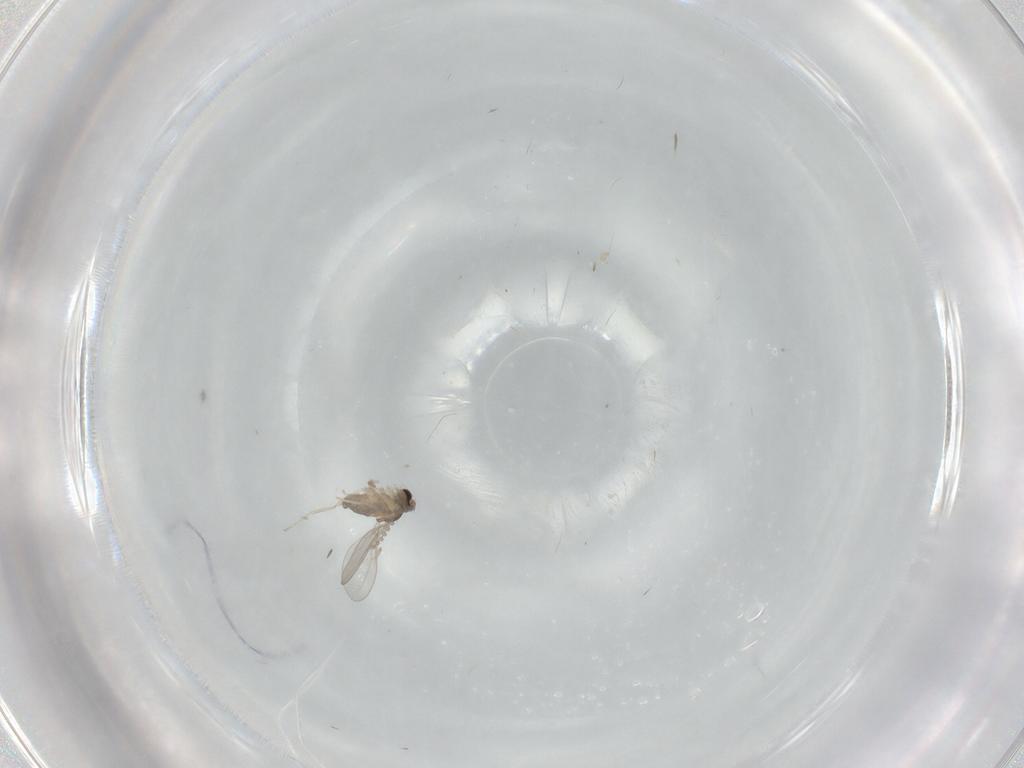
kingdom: Animalia
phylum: Arthropoda
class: Insecta
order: Diptera
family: Cecidomyiidae
